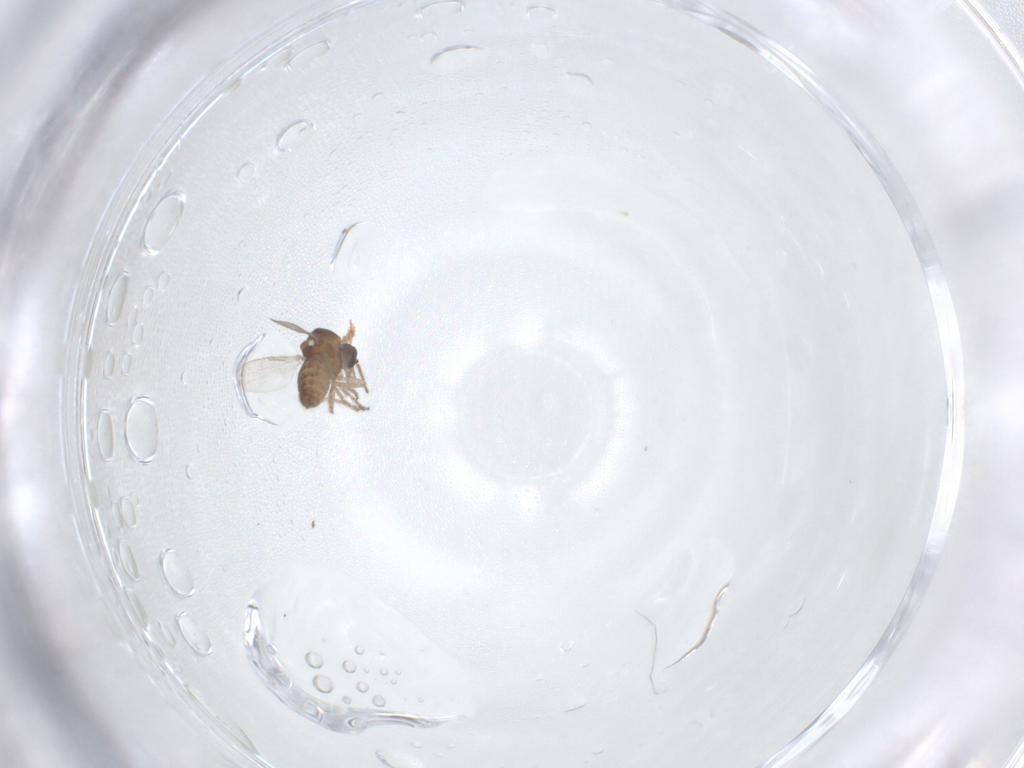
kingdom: Animalia
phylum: Arthropoda
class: Insecta
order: Diptera
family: Ceratopogonidae
